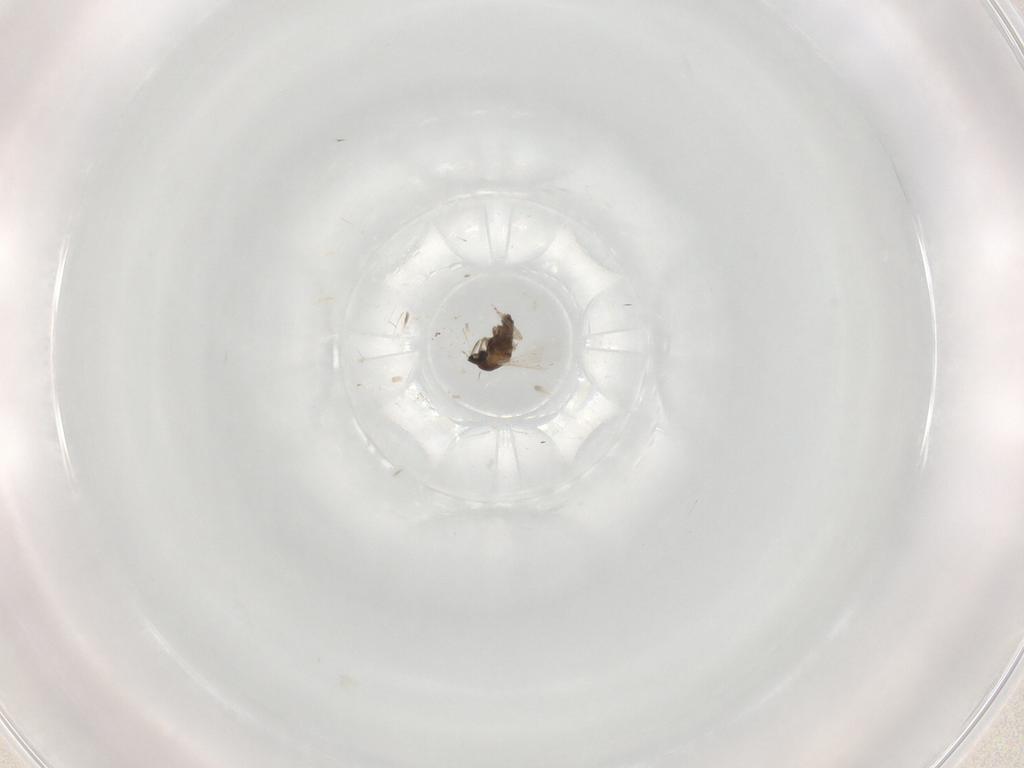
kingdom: Animalia
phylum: Arthropoda
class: Insecta
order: Diptera
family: Cecidomyiidae
